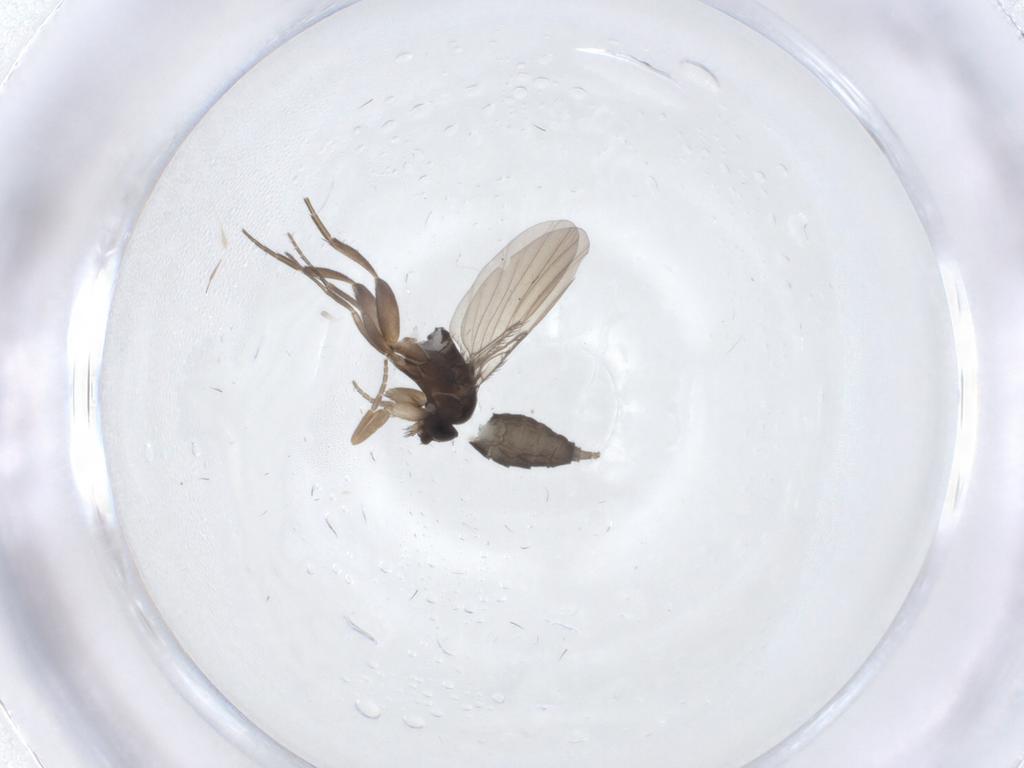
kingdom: Animalia
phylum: Arthropoda
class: Insecta
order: Diptera
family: Phoridae
